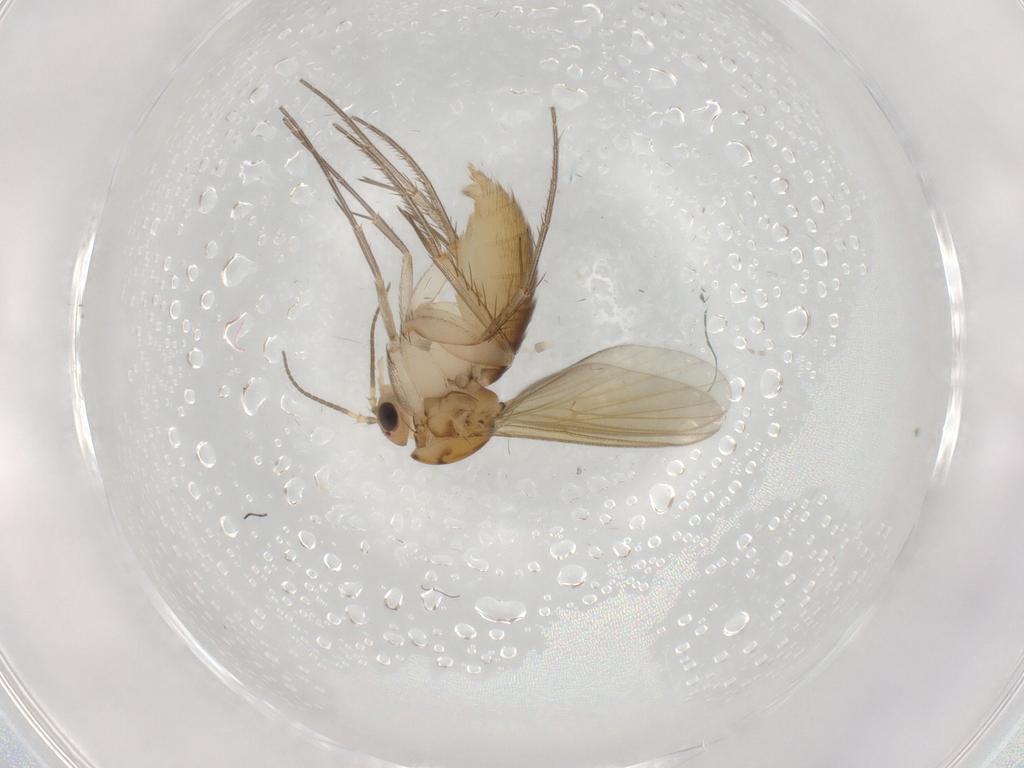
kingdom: Animalia
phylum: Arthropoda
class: Insecta
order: Diptera
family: Mycetophilidae
